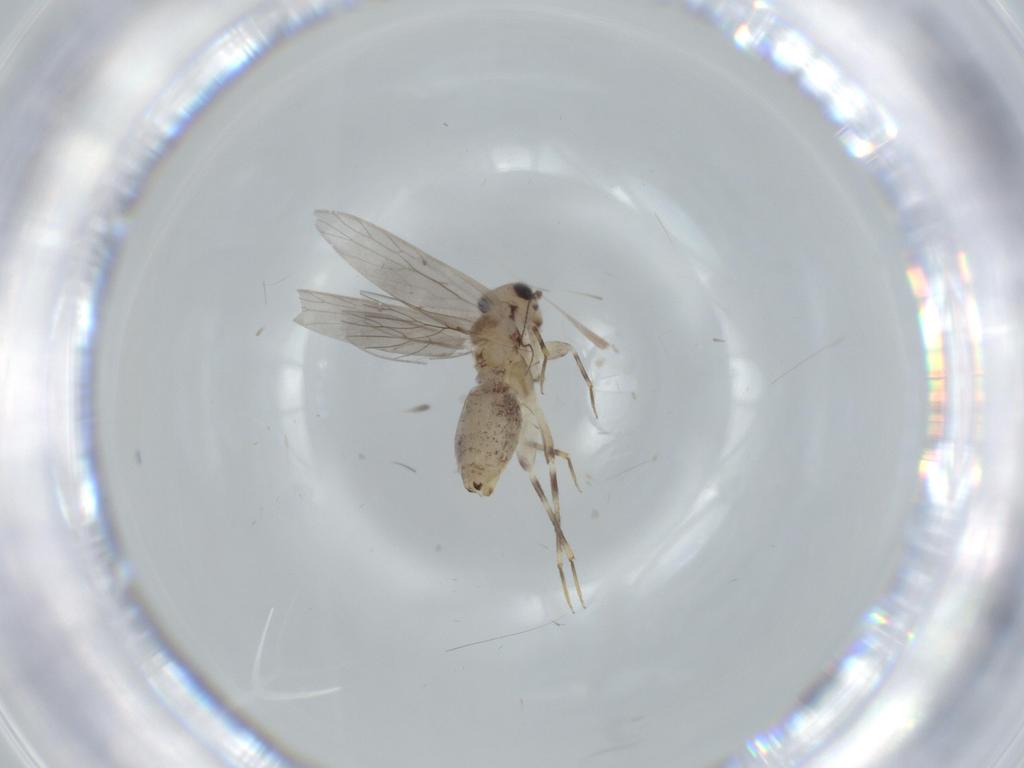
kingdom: Animalia
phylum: Arthropoda
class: Insecta
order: Psocodea
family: Lepidopsocidae
